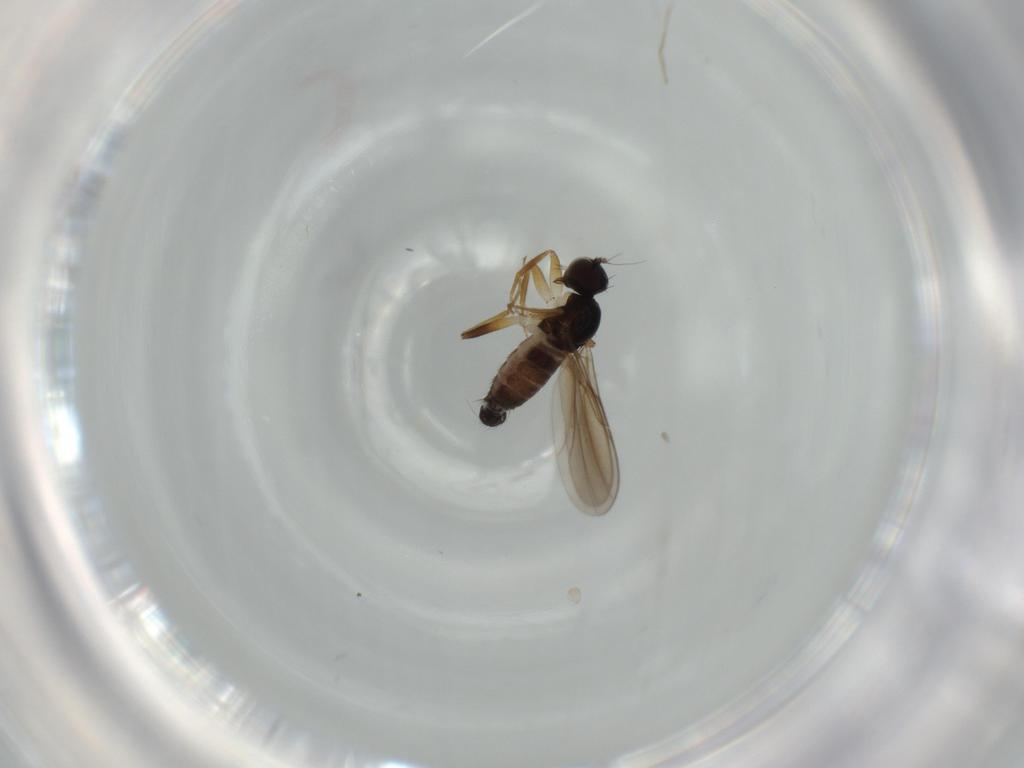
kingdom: Animalia
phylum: Arthropoda
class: Insecta
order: Diptera
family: Hybotidae
